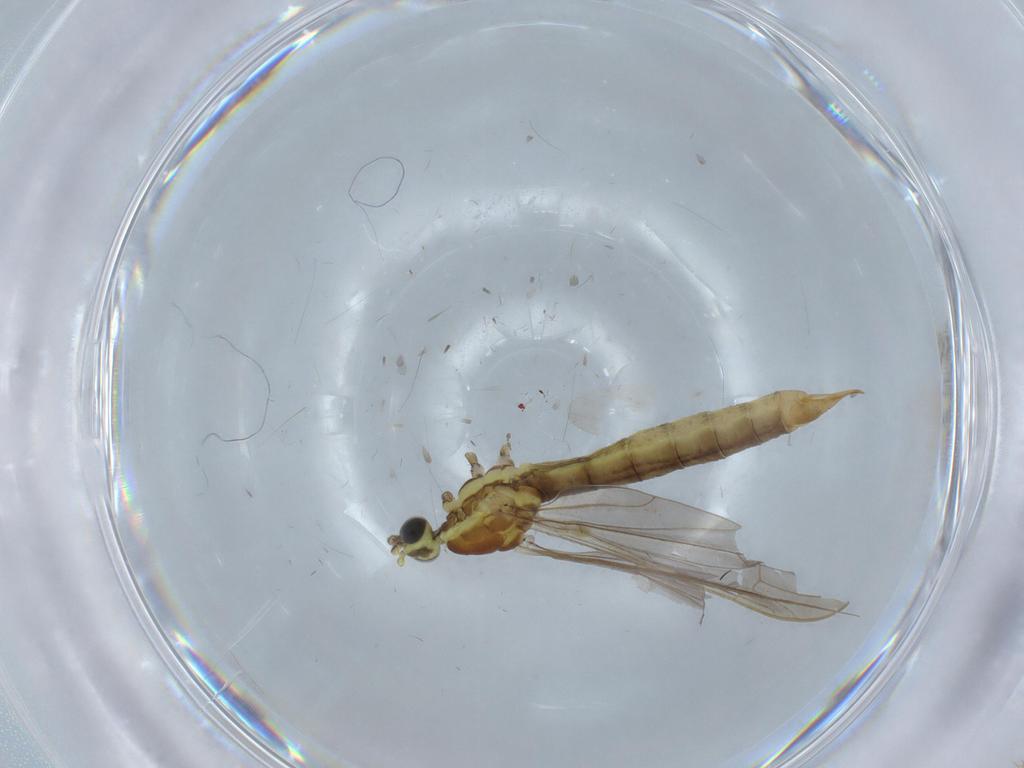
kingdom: Animalia
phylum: Arthropoda
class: Insecta
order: Diptera
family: Limoniidae
